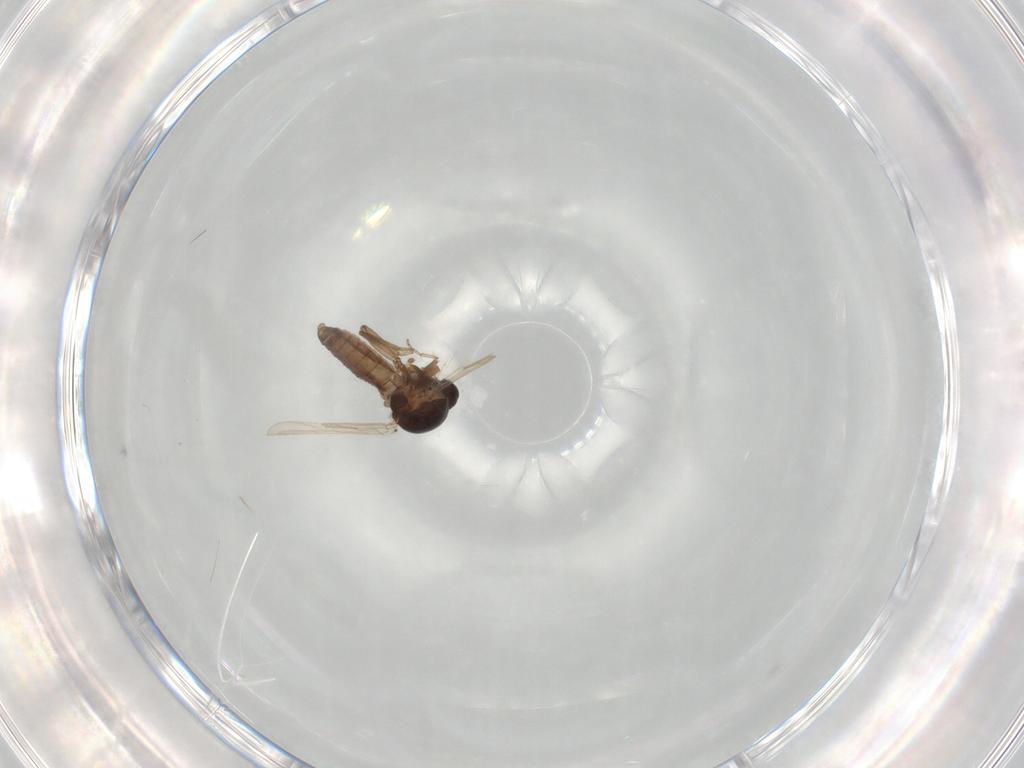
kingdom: Animalia
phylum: Arthropoda
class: Insecta
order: Diptera
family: Ceratopogonidae
